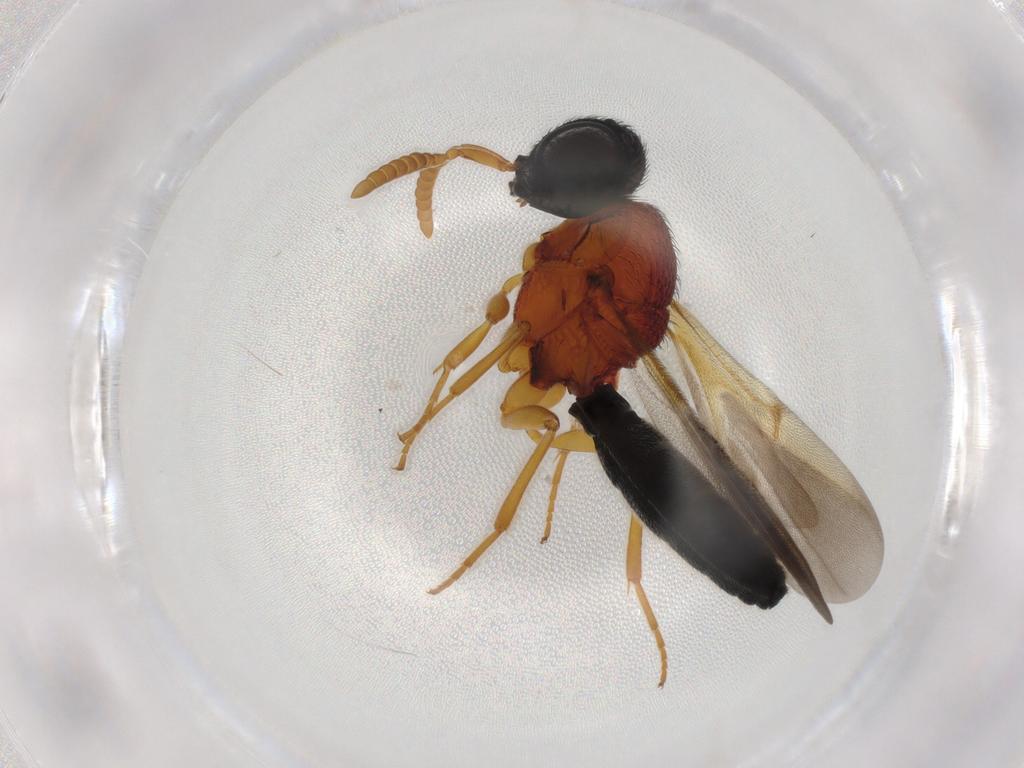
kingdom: Animalia
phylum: Arthropoda
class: Insecta
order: Hymenoptera
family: Scelionidae
